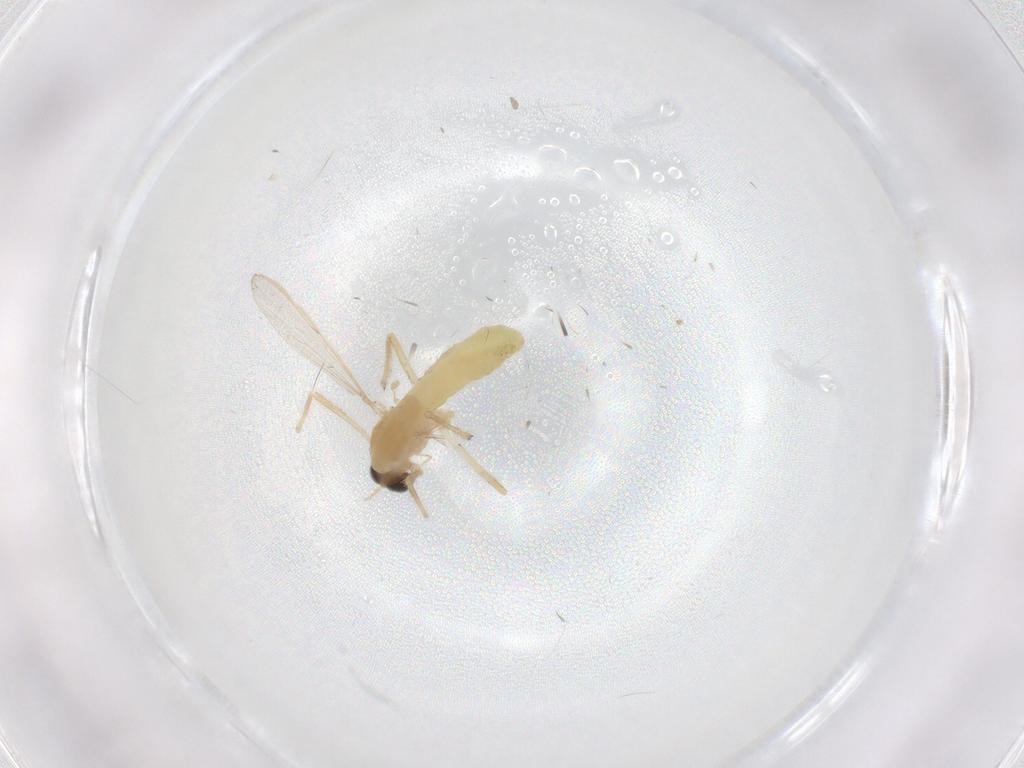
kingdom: Animalia
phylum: Arthropoda
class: Insecta
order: Diptera
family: Chironomidae
